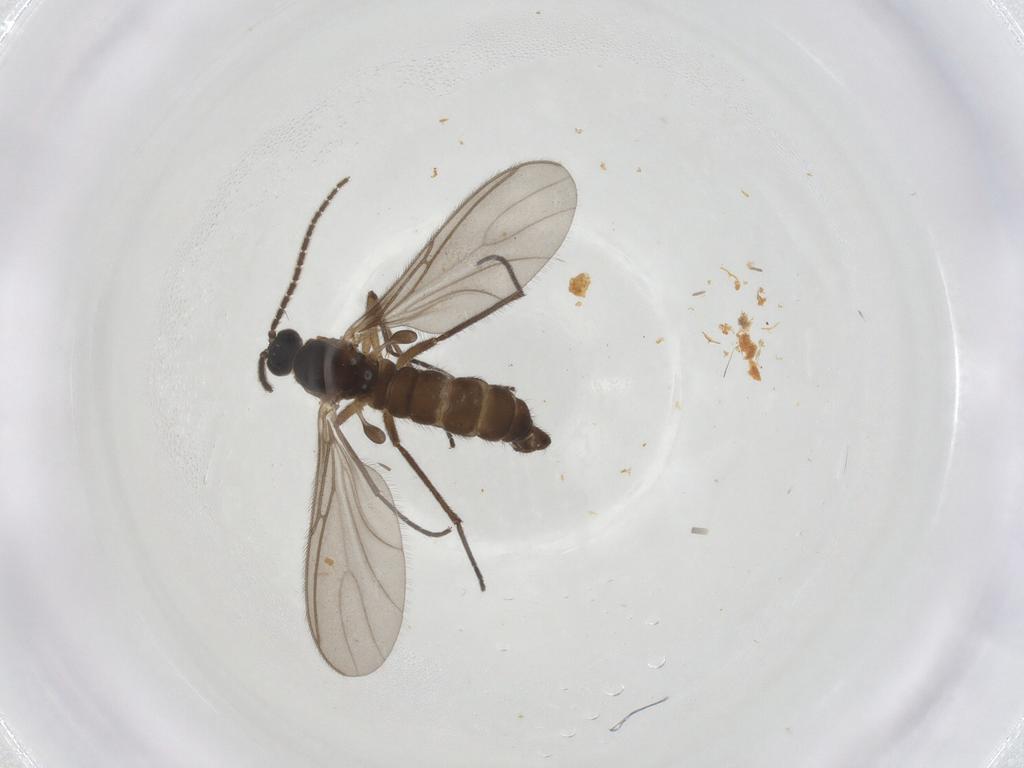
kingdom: Animalia
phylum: Arthropoda
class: Insecta
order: Diptera
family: Sciaridae
